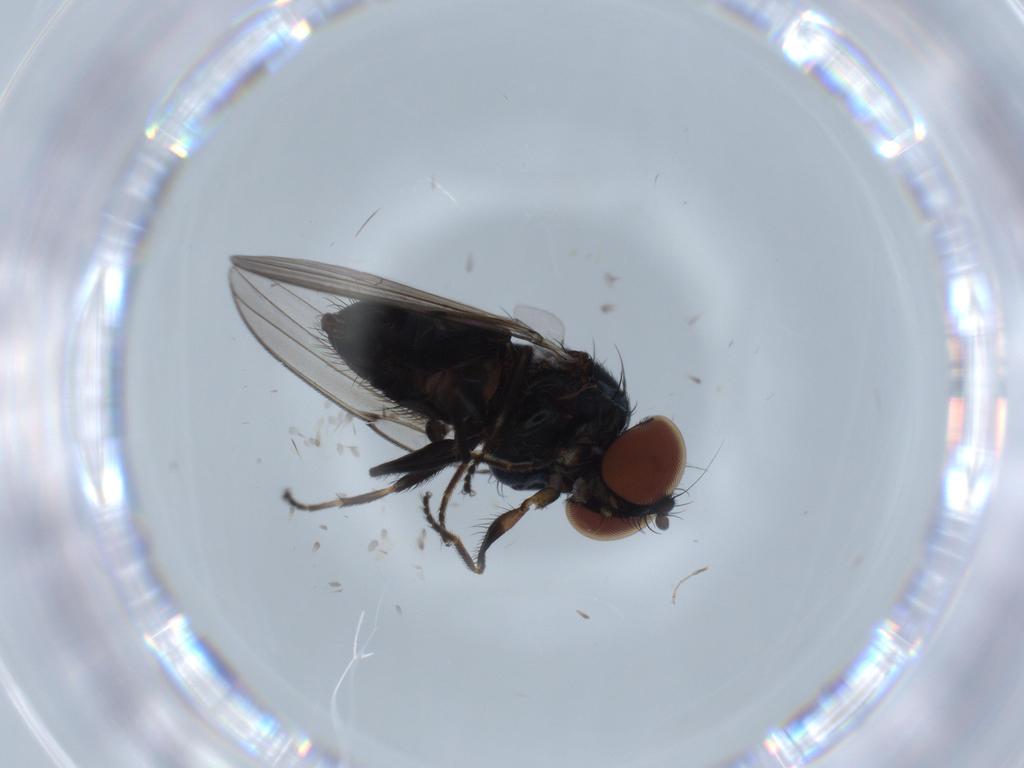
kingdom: Animalia
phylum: Arthropoda
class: Insecta
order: Diptera
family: Milichiidae
